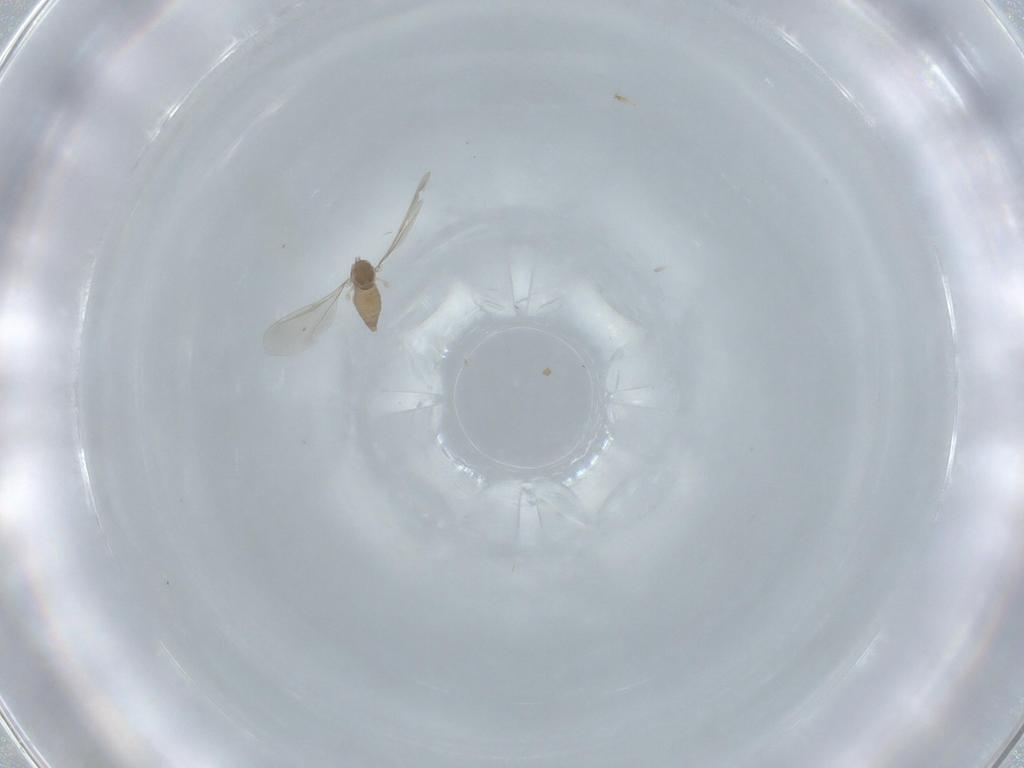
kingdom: Animalia
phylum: Arthropoda
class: Insecta
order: Diptera
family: Cecidomyiidae
